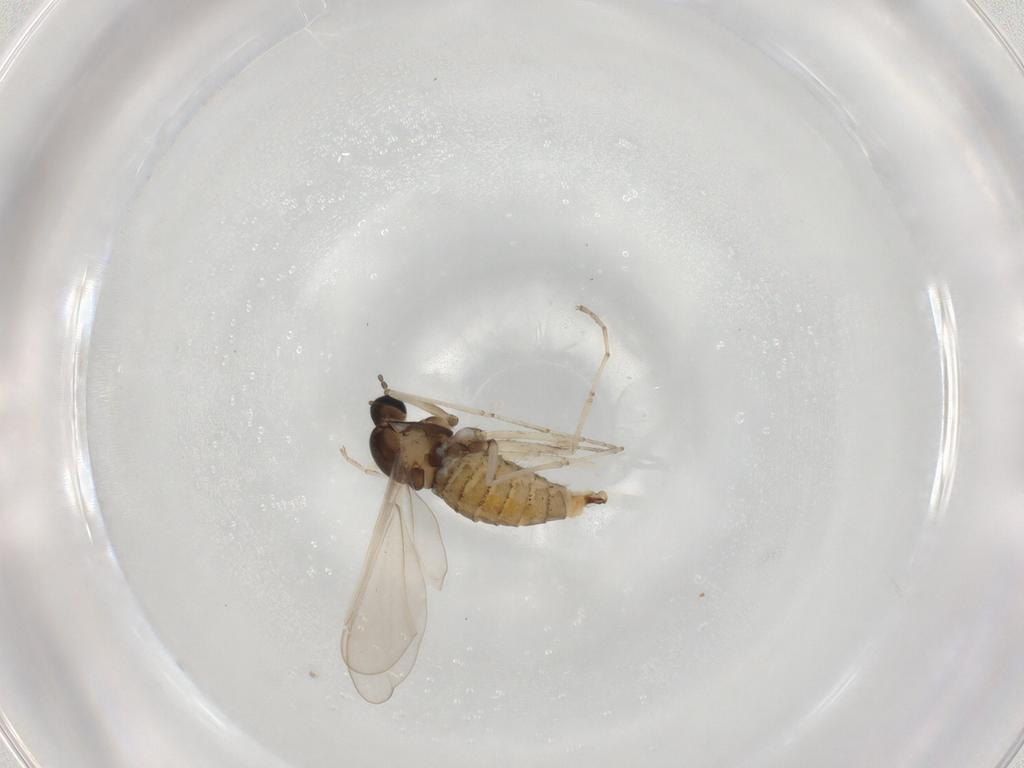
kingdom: Animalia
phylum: Arthropoda
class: Insecta
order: Diptera
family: Cecidomyiidae
